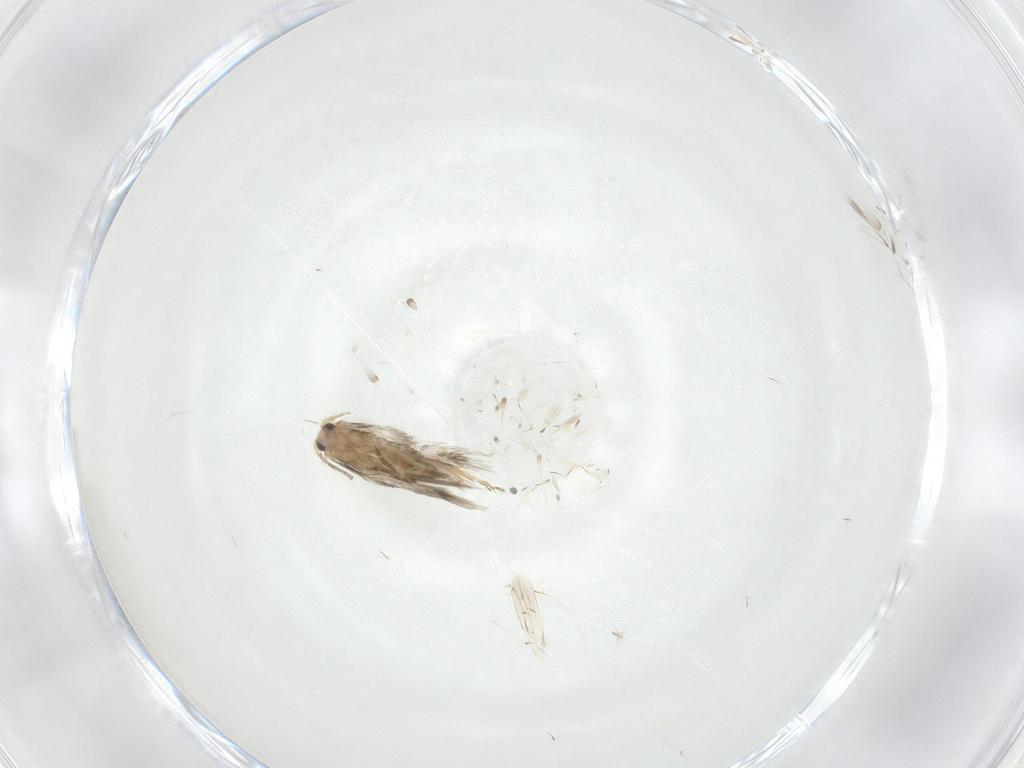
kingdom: Animalia
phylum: Arthropoda
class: Insecta
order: Lepidoptera
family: Nepticulidae
